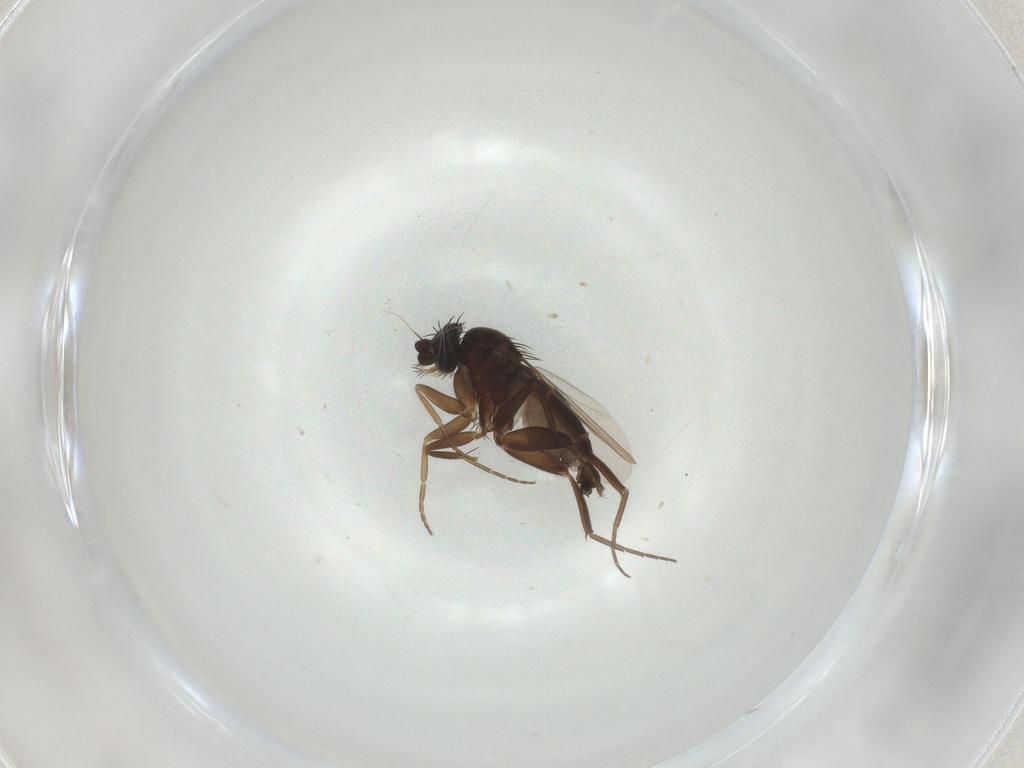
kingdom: Animalia
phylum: Arthropoda
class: Insecta
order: Diptera
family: Phoridae
